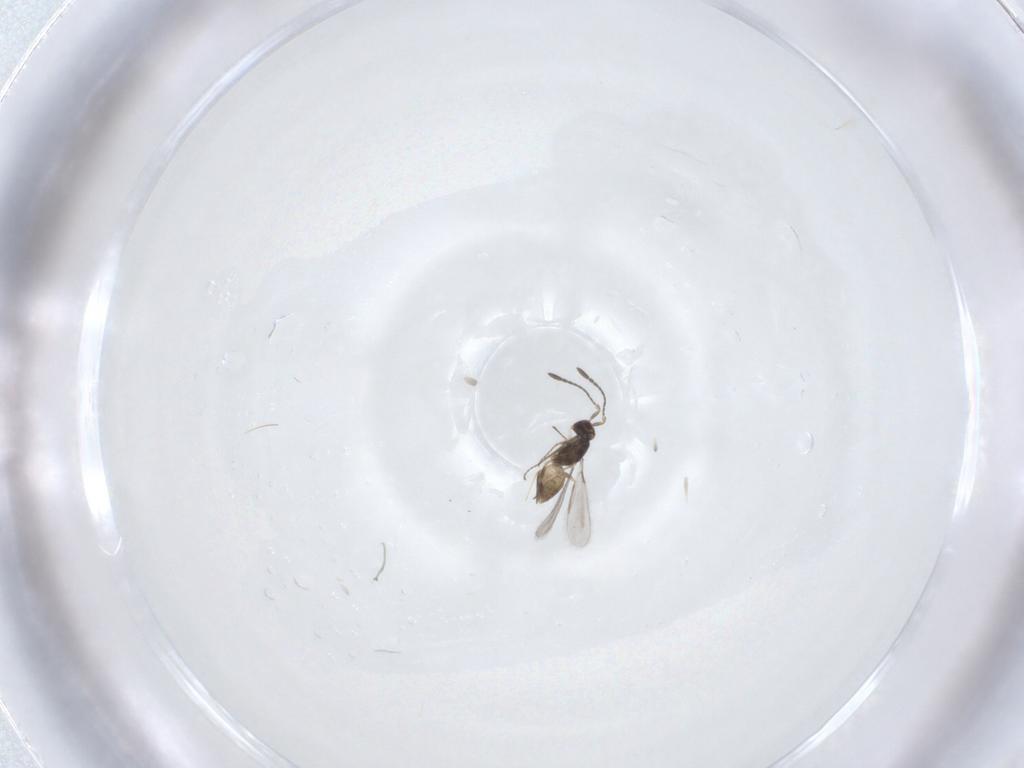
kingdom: Animalia
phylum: Arthropoda
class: Insecta
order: Hymenoptera
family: Mymaridae
